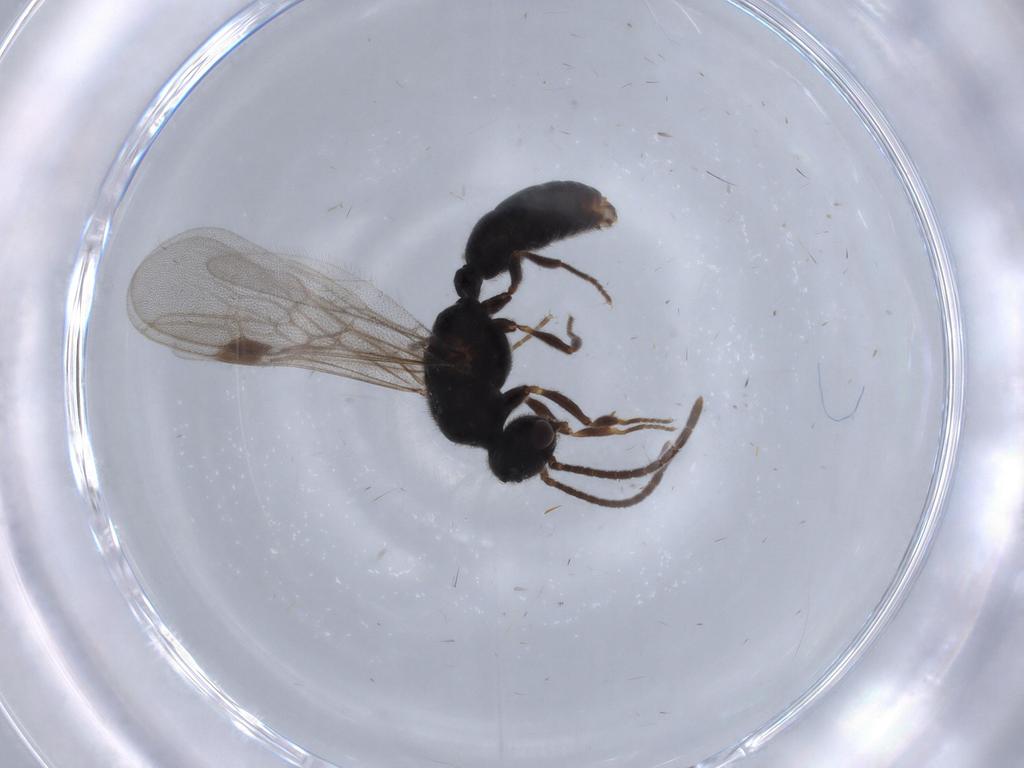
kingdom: Animalia
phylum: Arthropoda
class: Insecta
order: Hymenoptera
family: Formicidae
